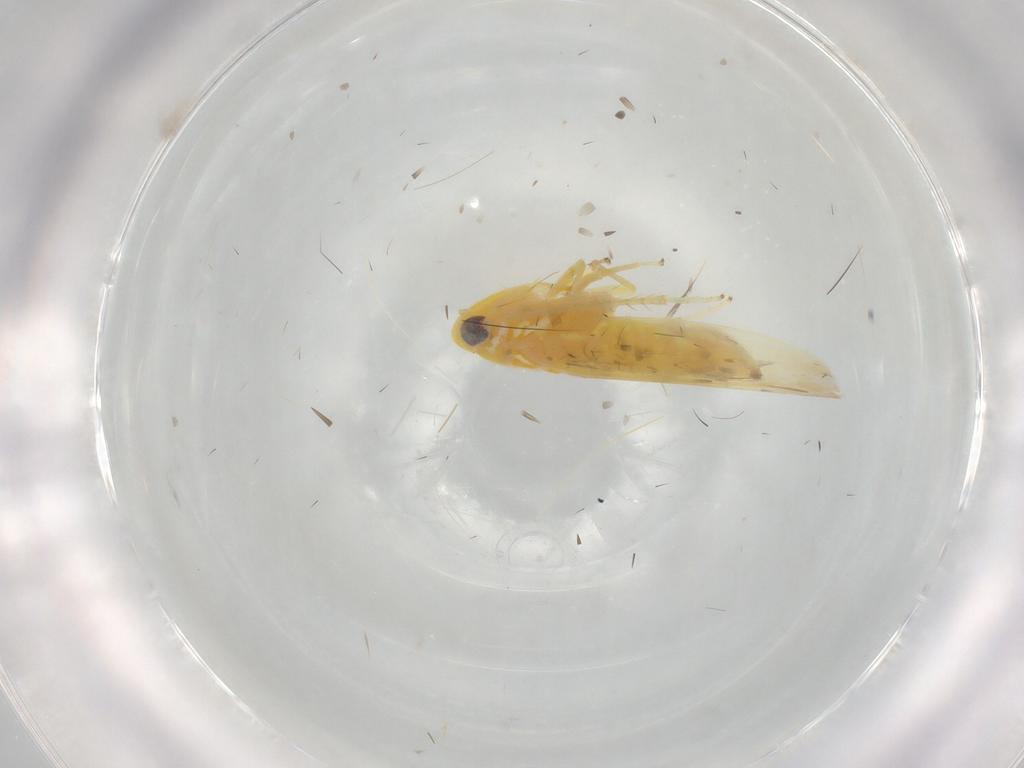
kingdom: Animalia
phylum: Arthropoda
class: Insecta
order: Hemiptera
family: Cicadellidae
